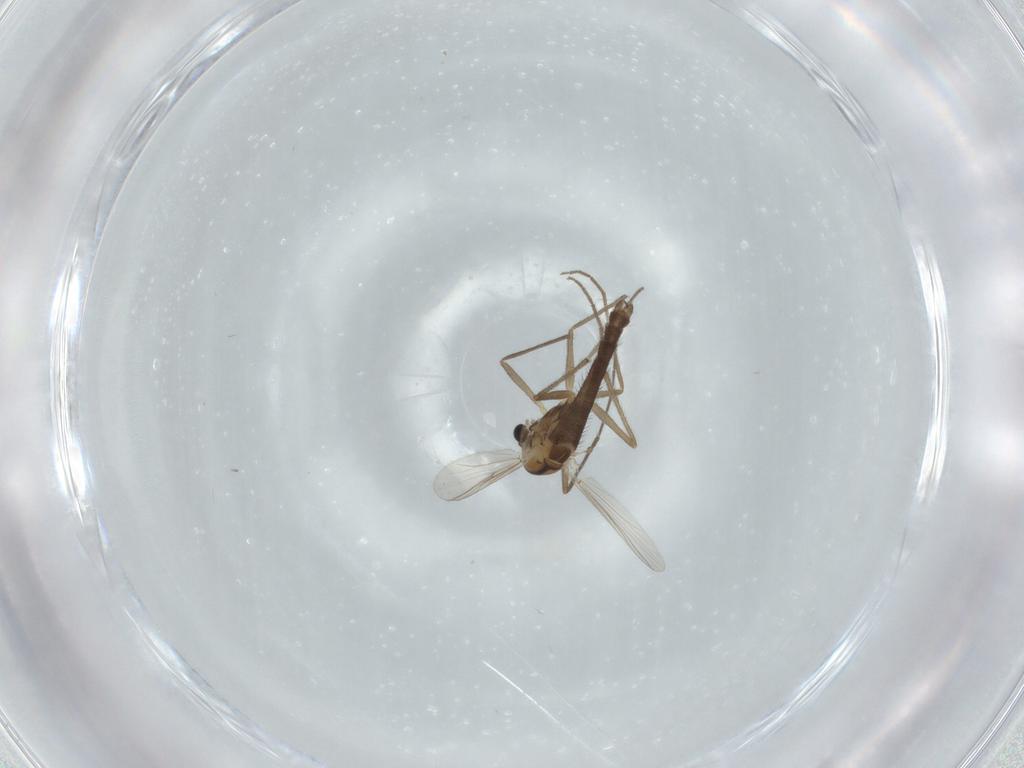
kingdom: Animalia
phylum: Arthropoda
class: Insecta
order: Diptera
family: Chironomidae
